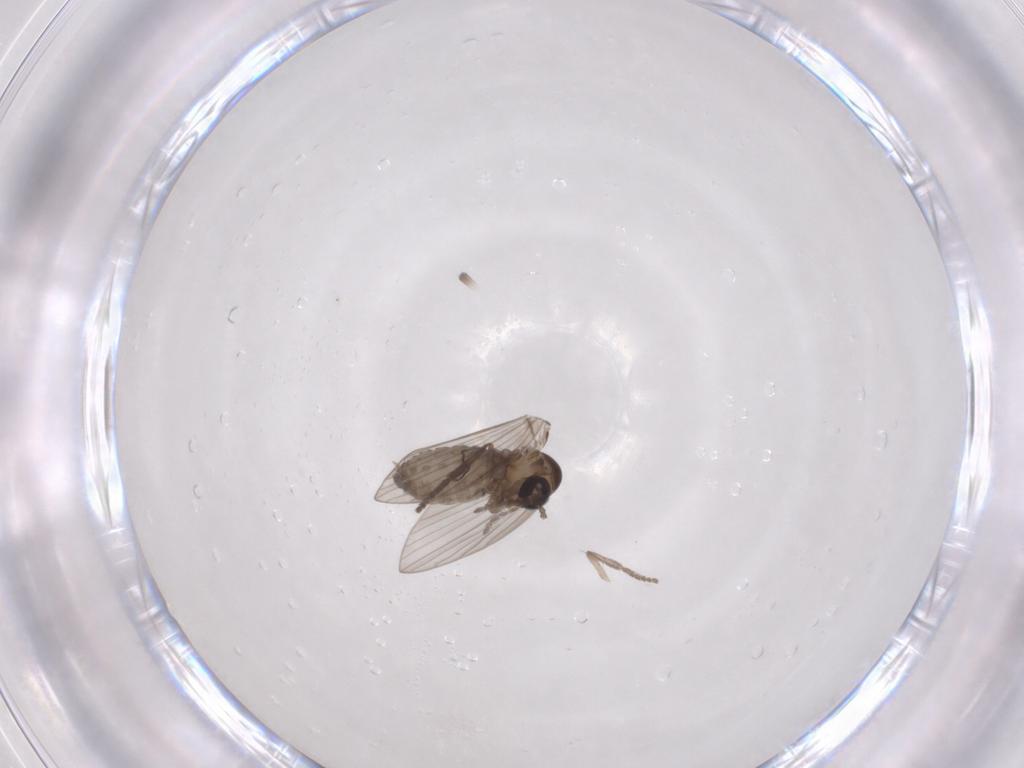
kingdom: Animalia
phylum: Arthropoda
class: Insecta
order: Diptera
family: Psychodidae
